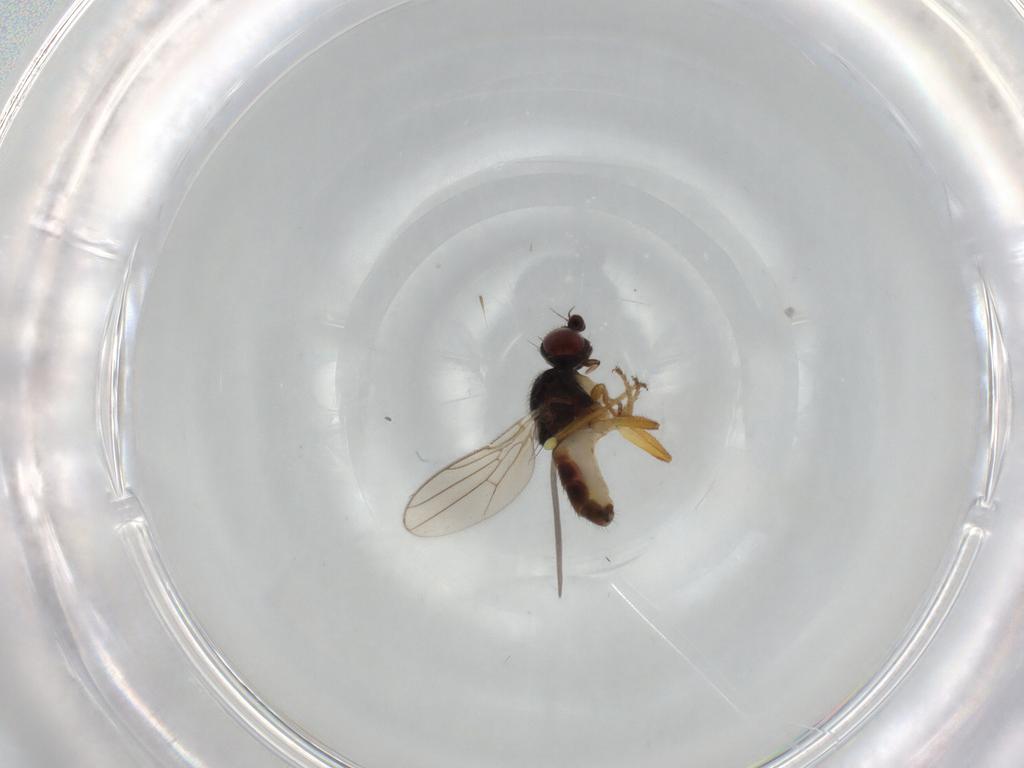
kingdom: Animalia
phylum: Arthropoda
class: Insecta
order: Diptera
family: Chloropidae
